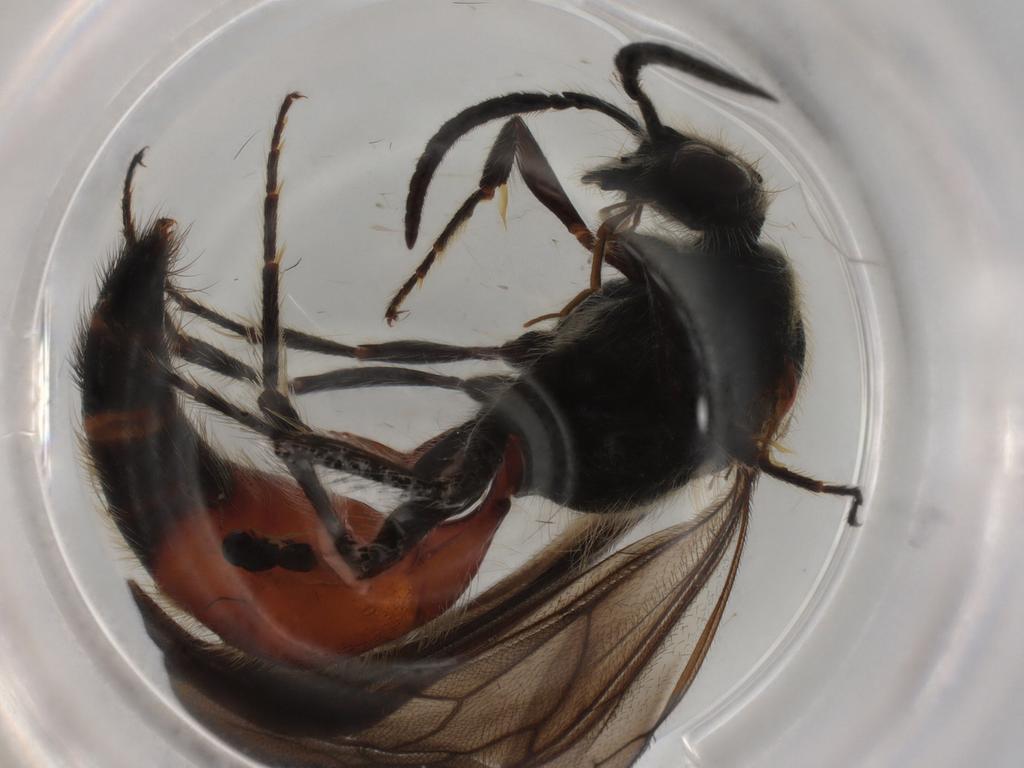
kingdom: Animalia
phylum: Arthropoda
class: Insecta
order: Hymenoptera
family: Scelionidae
